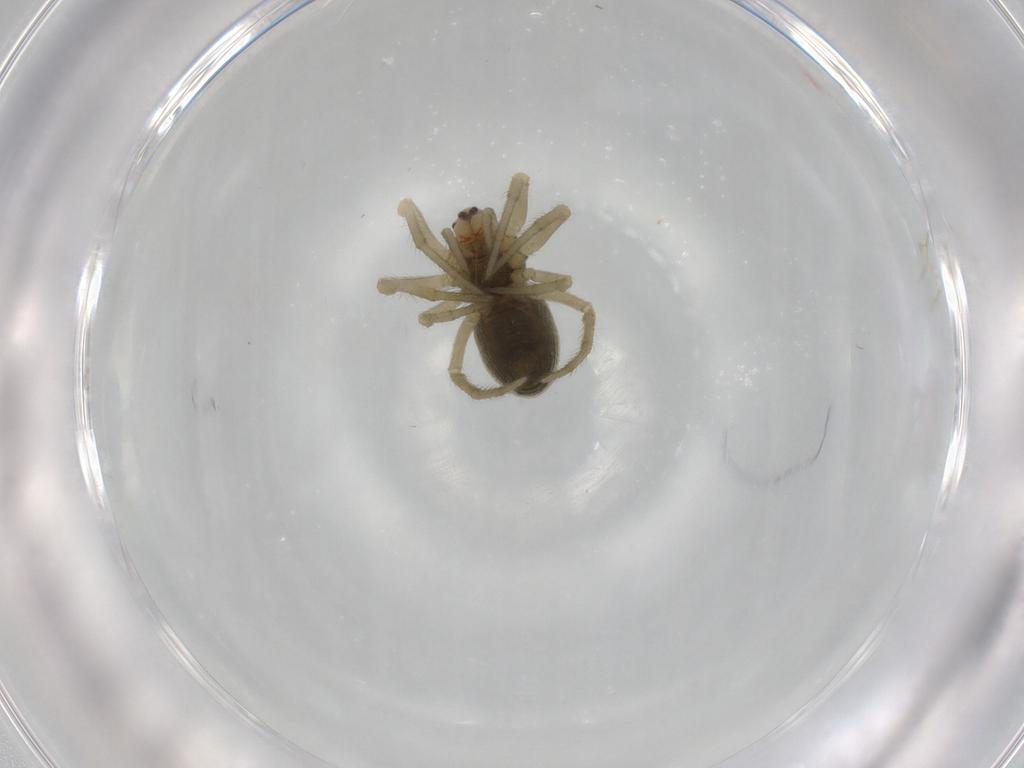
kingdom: Animalia
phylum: Arthropoda
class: Arachnida
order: Araneae
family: Araneidae
